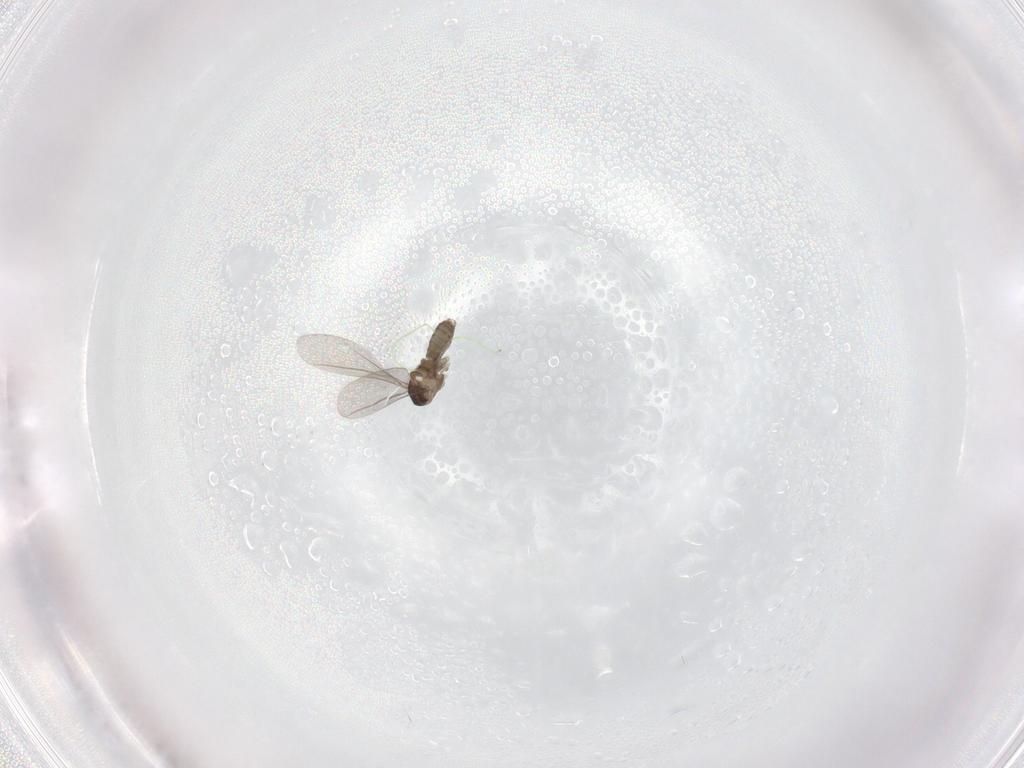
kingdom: Animalia
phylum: Arthropoda
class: Insecta
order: Diptera
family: Cecidomyiidae
